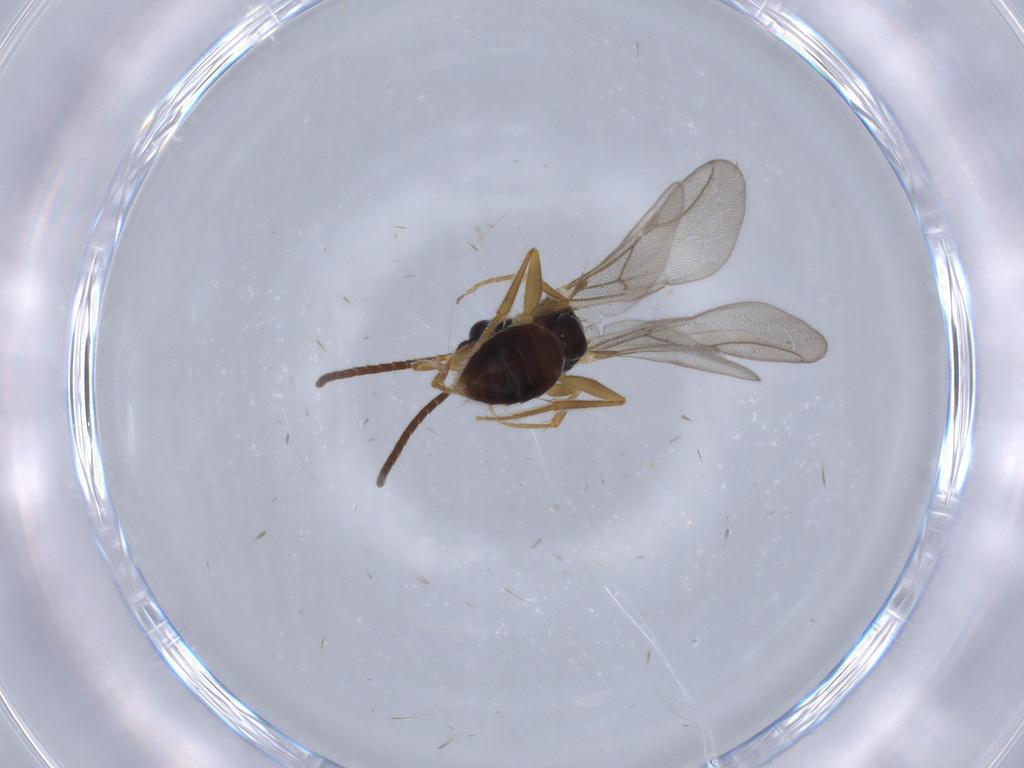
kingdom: Animalia
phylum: Arthropoda
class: Insecta
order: Hymenoptera
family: Bethylidae
